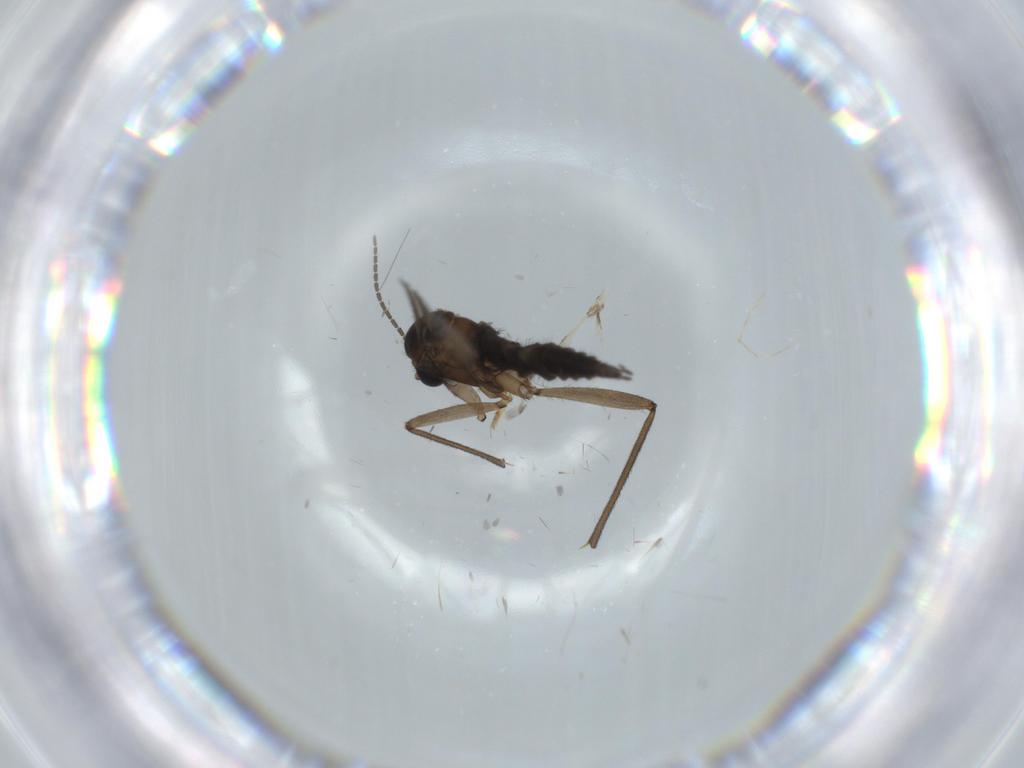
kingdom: Animalia
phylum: Arthropoda
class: Insecta
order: Diptera
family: Sciaridae
